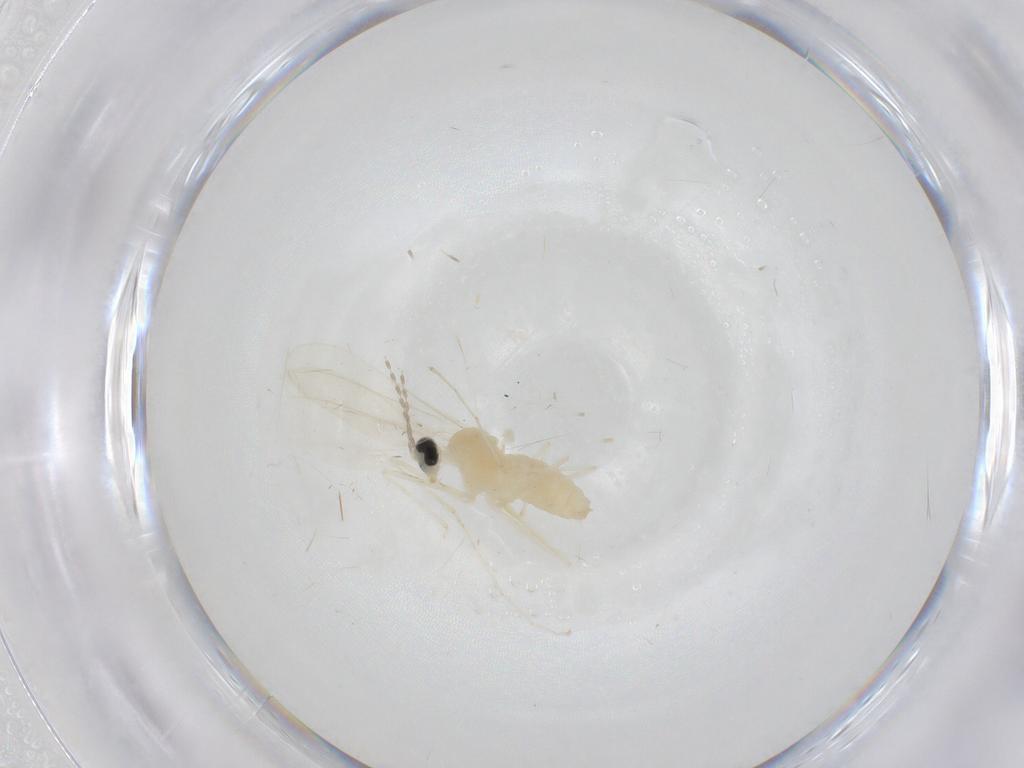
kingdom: Animalia
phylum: Arthropoda
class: Insecta
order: Diptera
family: Cecidomyiidae
